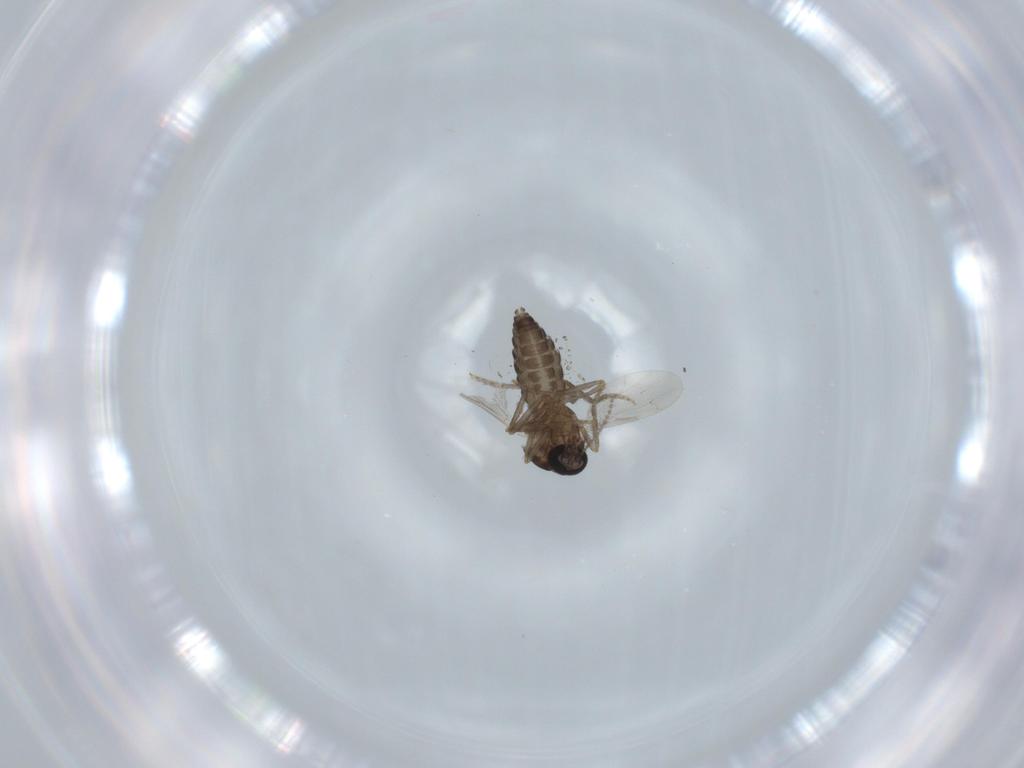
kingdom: Animalia
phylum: Arthropoda
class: Insecta
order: Diptera
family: Ceratopogonidae
